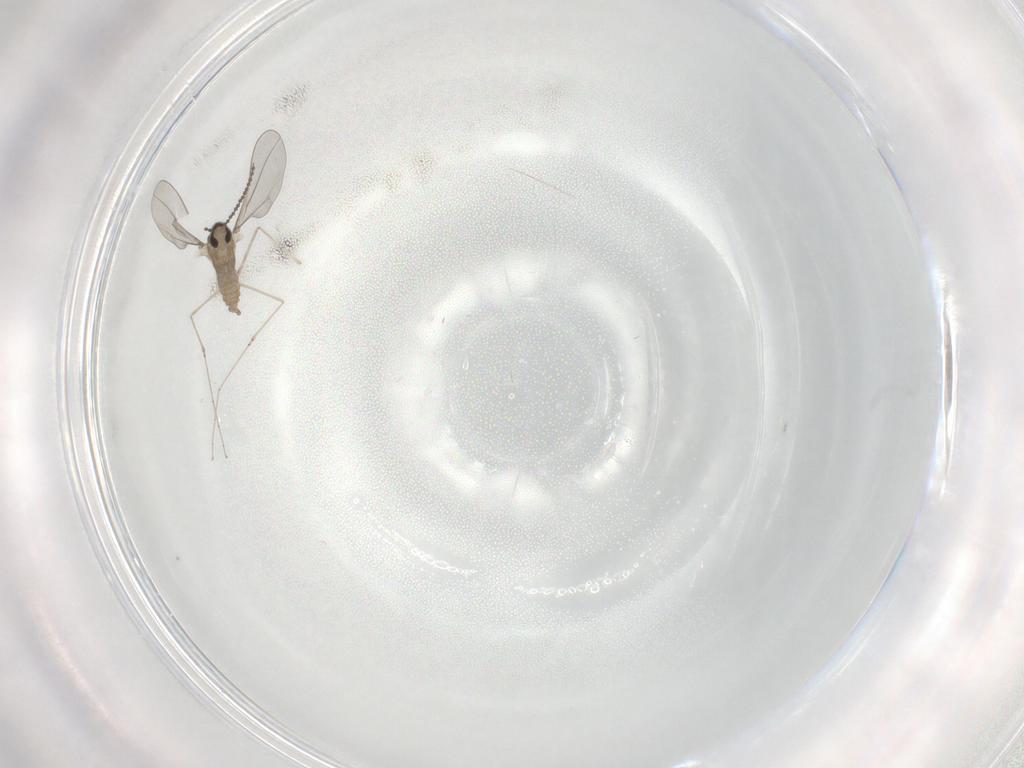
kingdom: Animalia
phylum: Arthropoda
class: Insecta
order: Diptera
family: Cecidomyiidae
